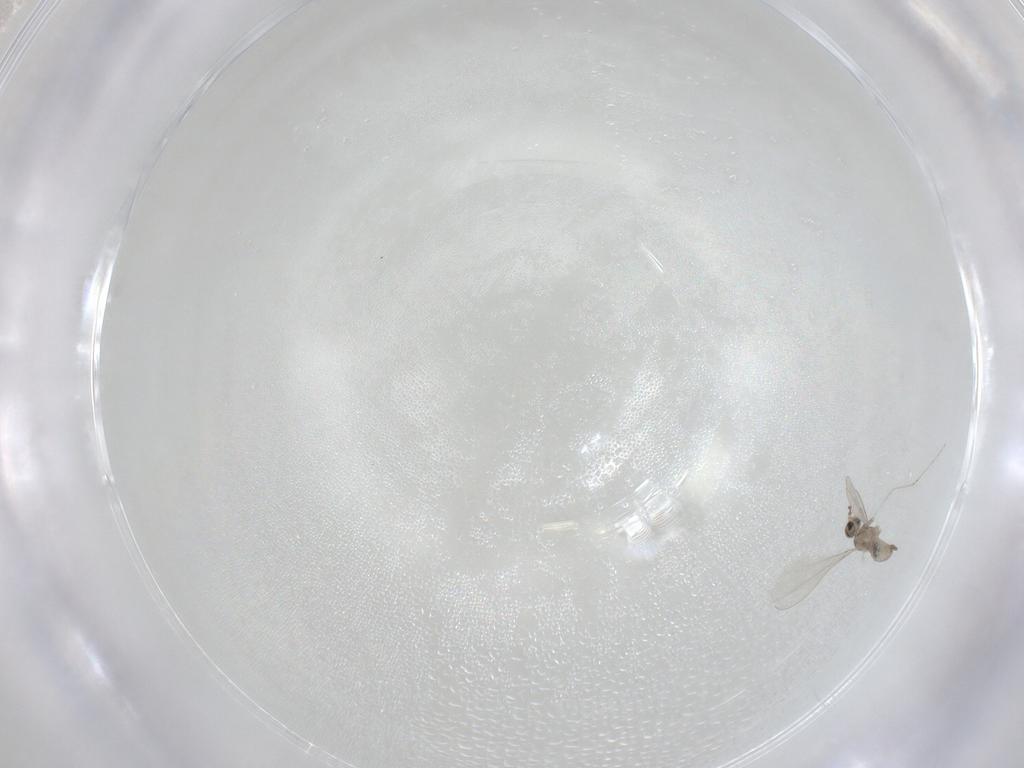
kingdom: Animalia
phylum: Arthropoda
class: Insecta
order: Diptera
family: Cecidomyiidae
